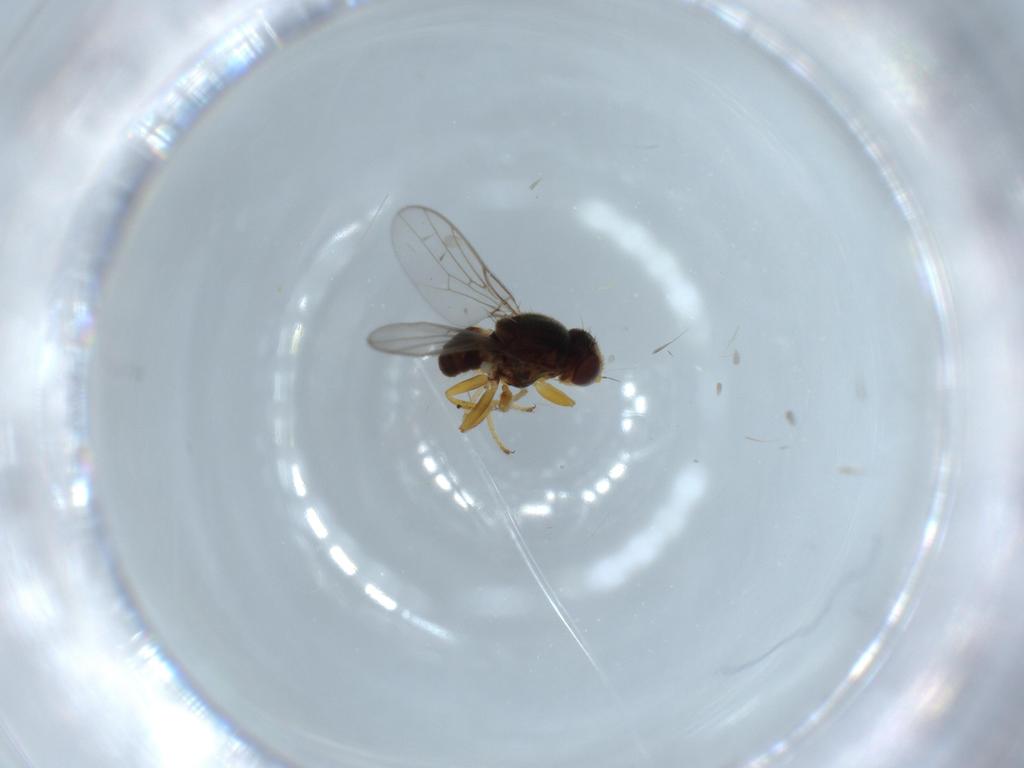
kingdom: Animalia
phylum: Arthropoda
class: Insecta
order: Diptera
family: Chloropidae
